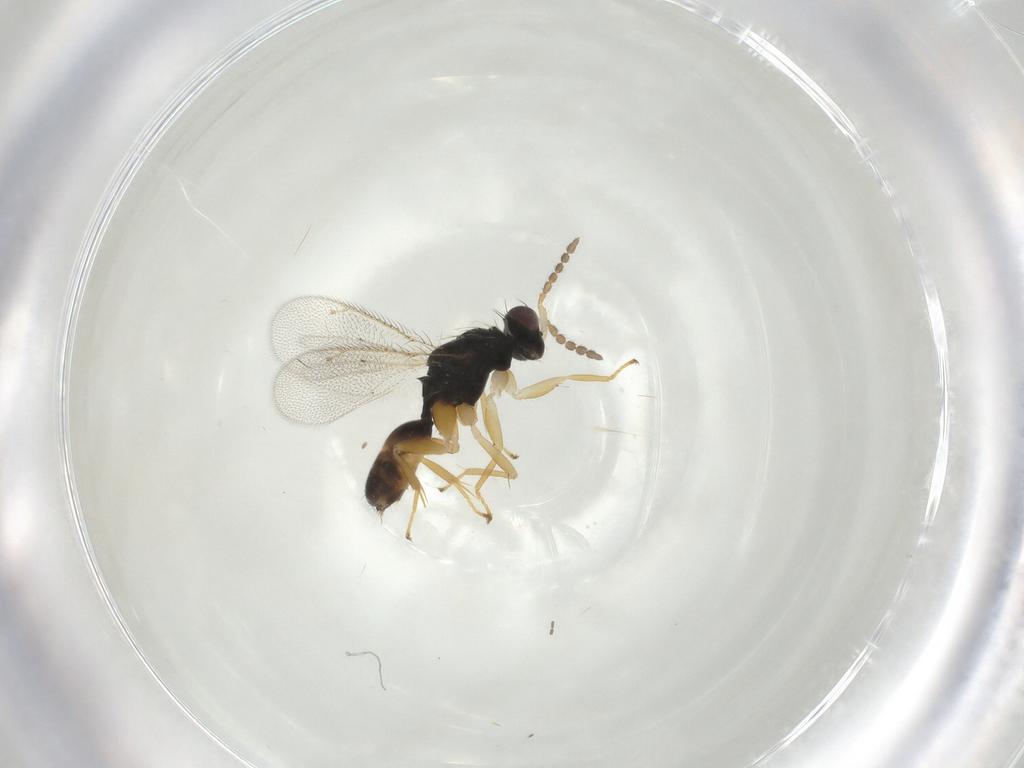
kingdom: Animalia
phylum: Arthropoda
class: Insecta
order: Hymenoptera
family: Eulophidae
